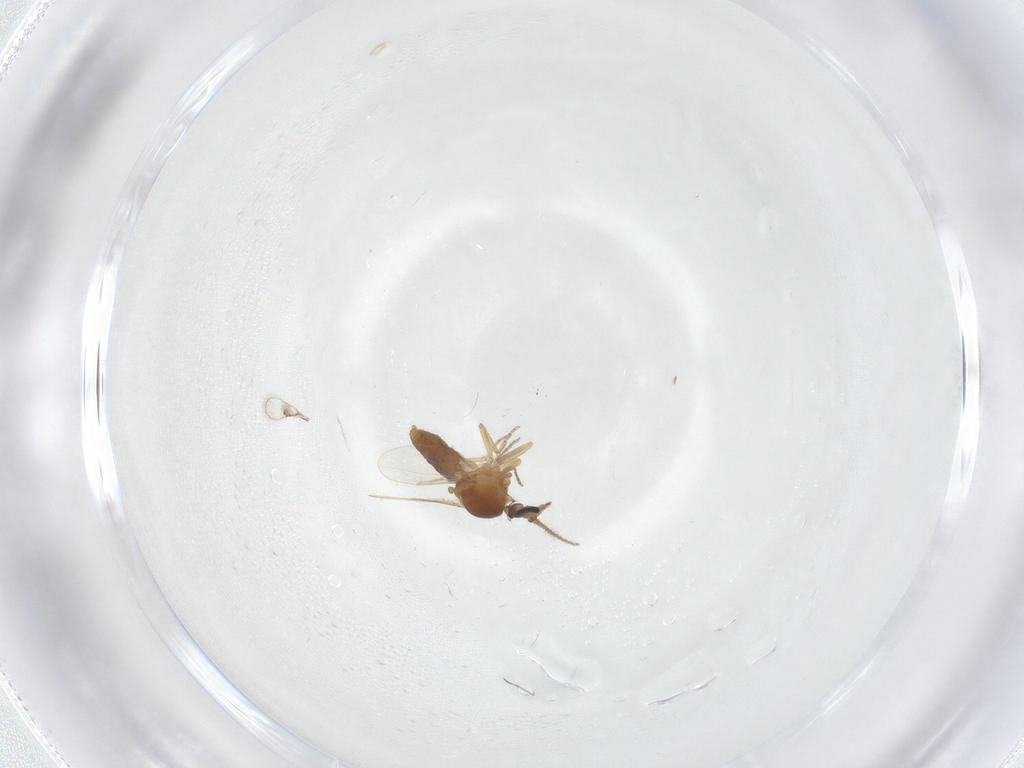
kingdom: Animalia
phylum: Arthropoda
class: Insecta
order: Diptera
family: Ceratopogonidae
